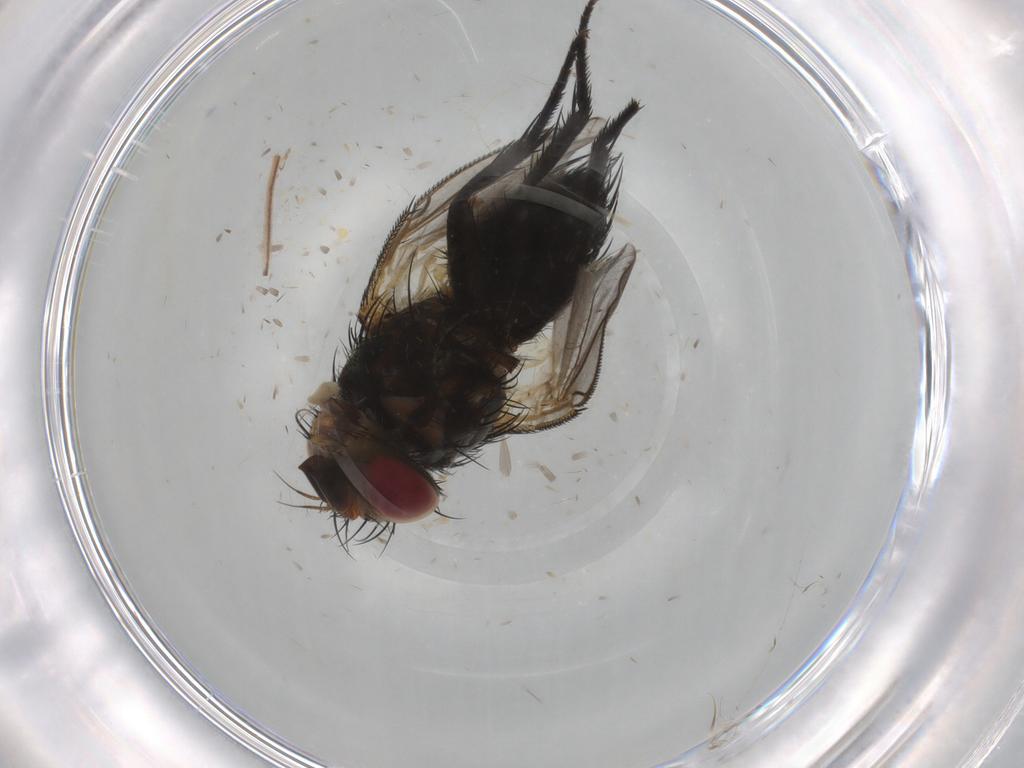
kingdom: Animalia
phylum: Arthropoda
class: Insecta
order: Diptera
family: Tachinidae
